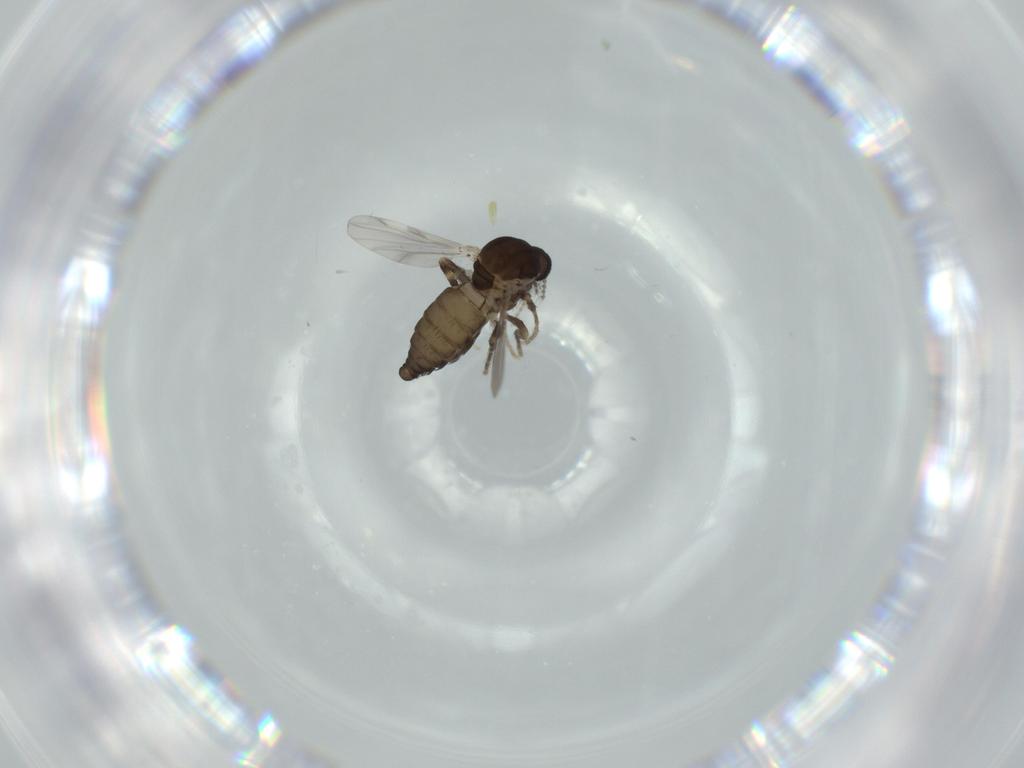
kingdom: Animalia
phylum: Arthropoda
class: Insecta
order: Diptera
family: Ceratopogonidae
